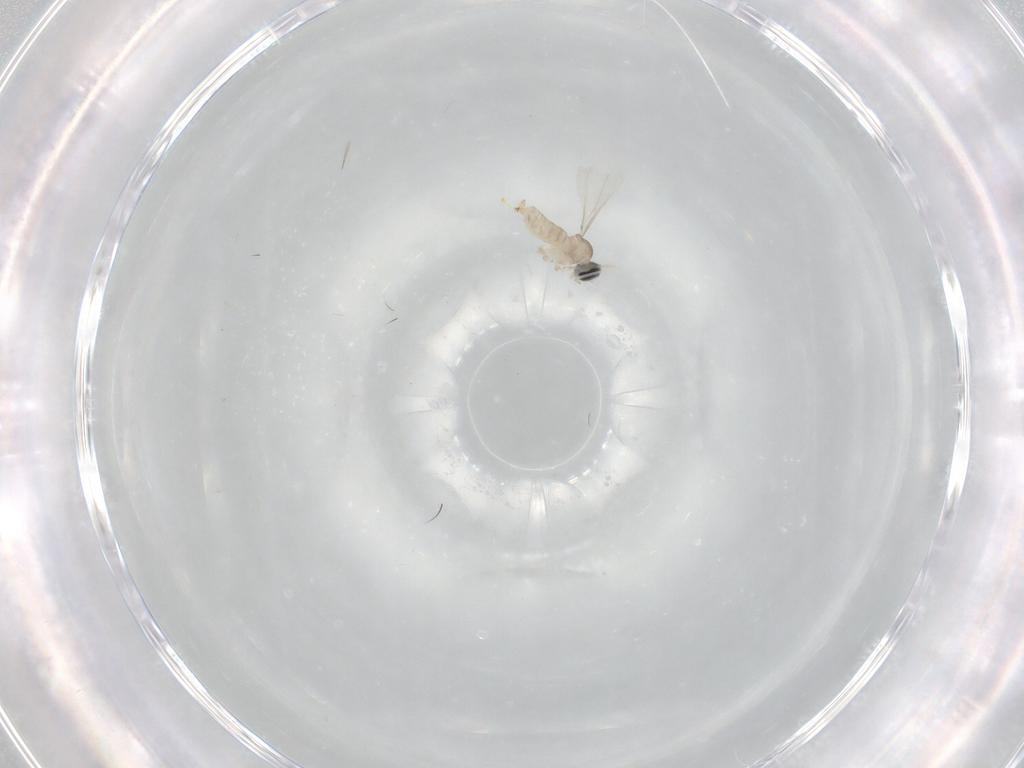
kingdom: Animalia
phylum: Arthropoda
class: Insecta
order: Diptera
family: Cecidomyiidae
